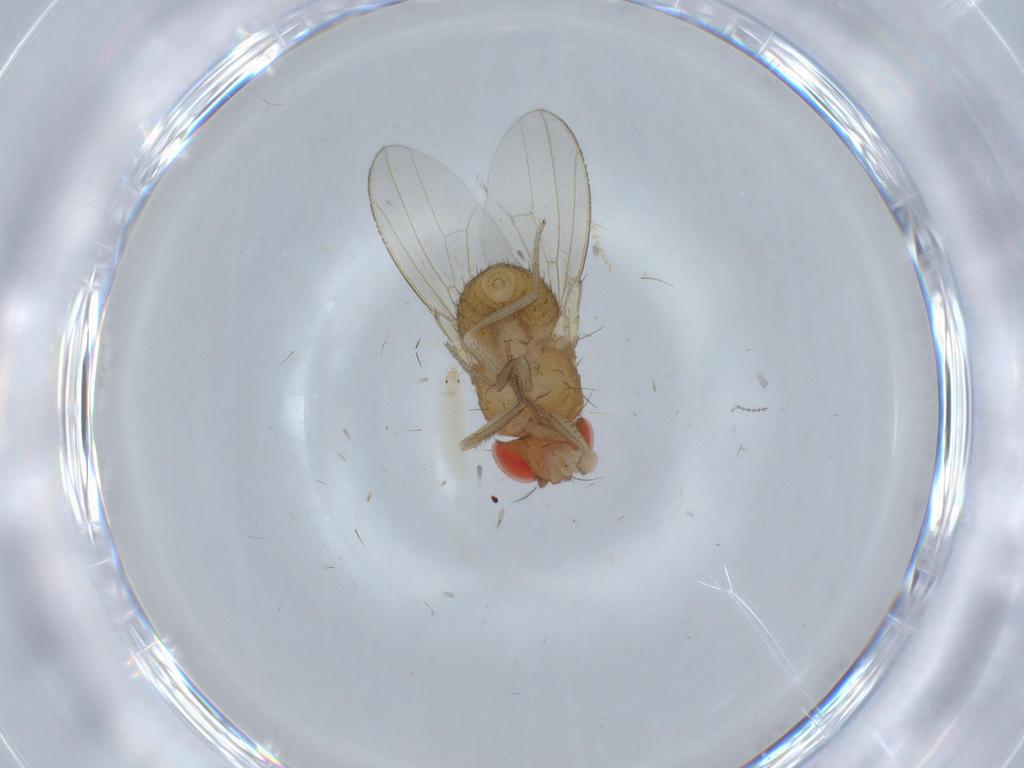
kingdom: Animalia
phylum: Arthropoda
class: Insecta
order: Diptera
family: Drosophilidae
